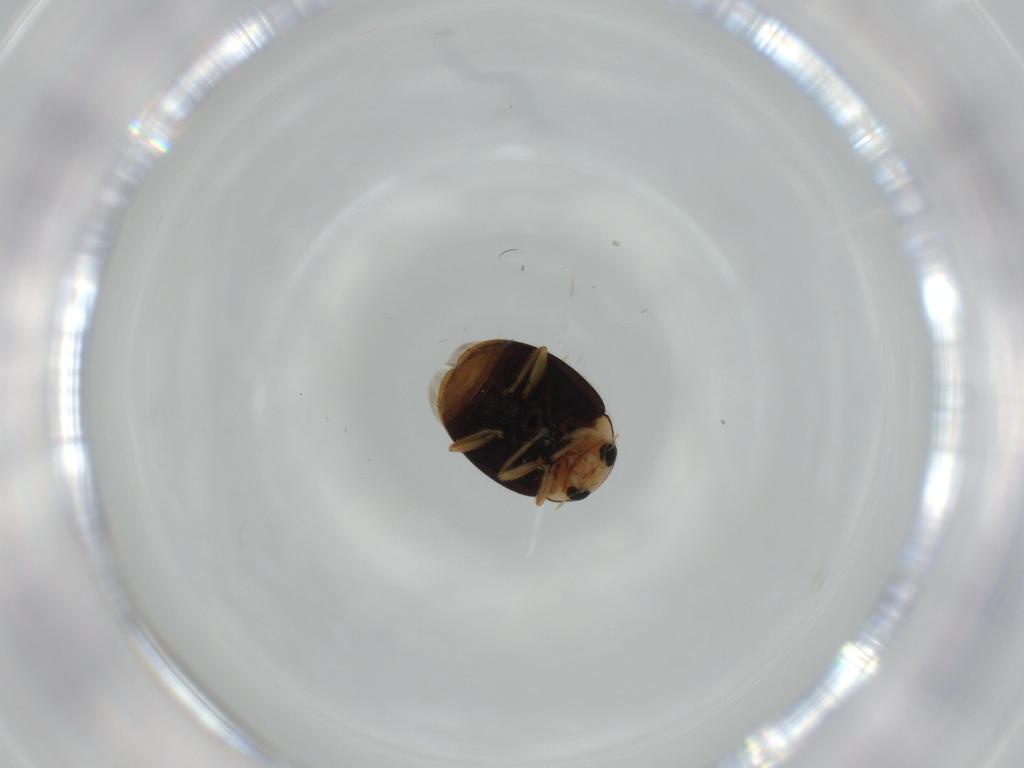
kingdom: Animalia
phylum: Arthropoda
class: Insecta
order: Coleoptera
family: Coccinellidae
